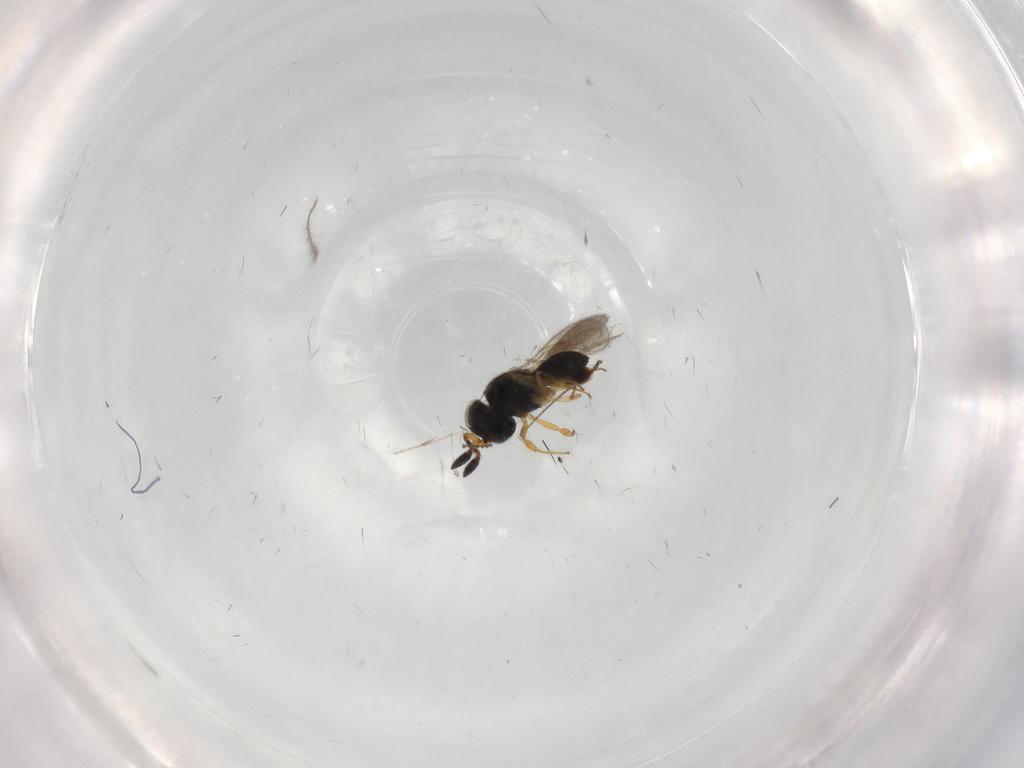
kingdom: Animalia
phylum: Arthropoda
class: Insecta
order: Hymenoptera
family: Scelionidae
